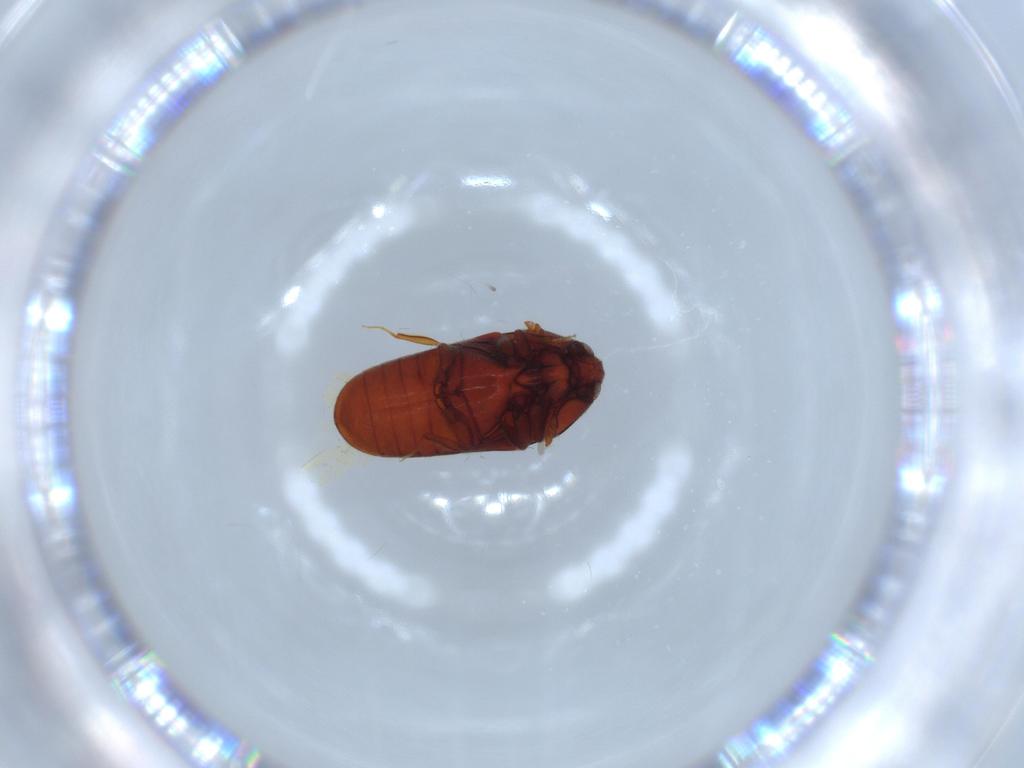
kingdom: Animalia
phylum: Arthropoda
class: Insecta
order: Coleoptera
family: Throscidae
